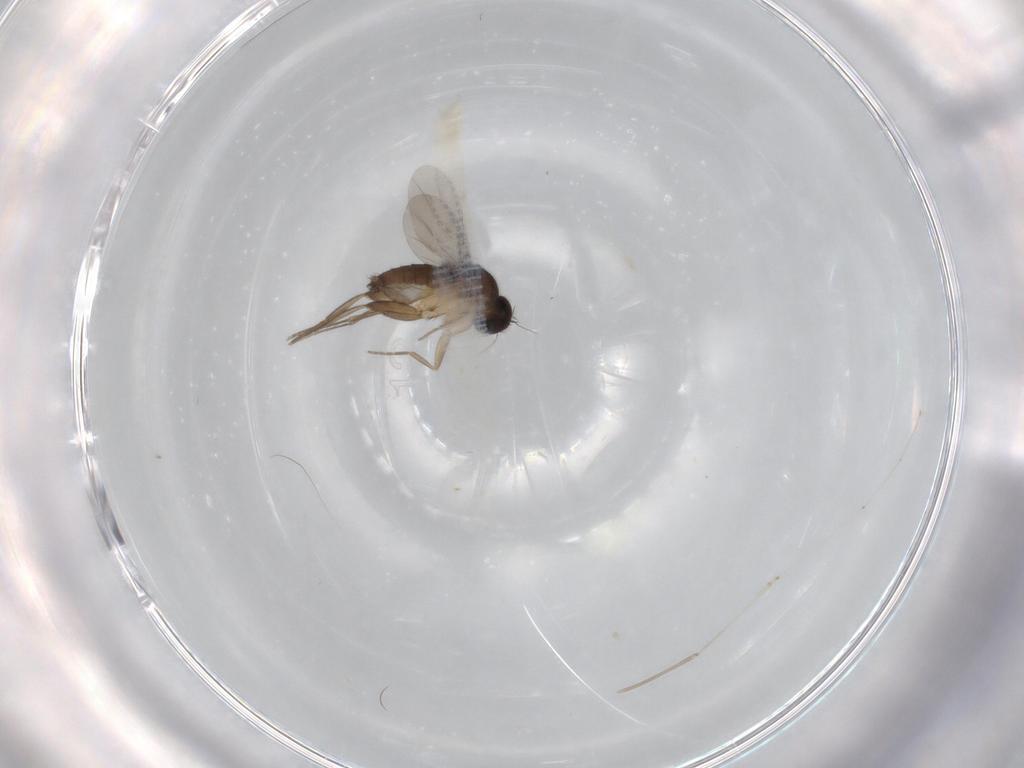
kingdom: Animalia
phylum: Arthropoda
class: Insecta
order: Diptera
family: Phoridae
